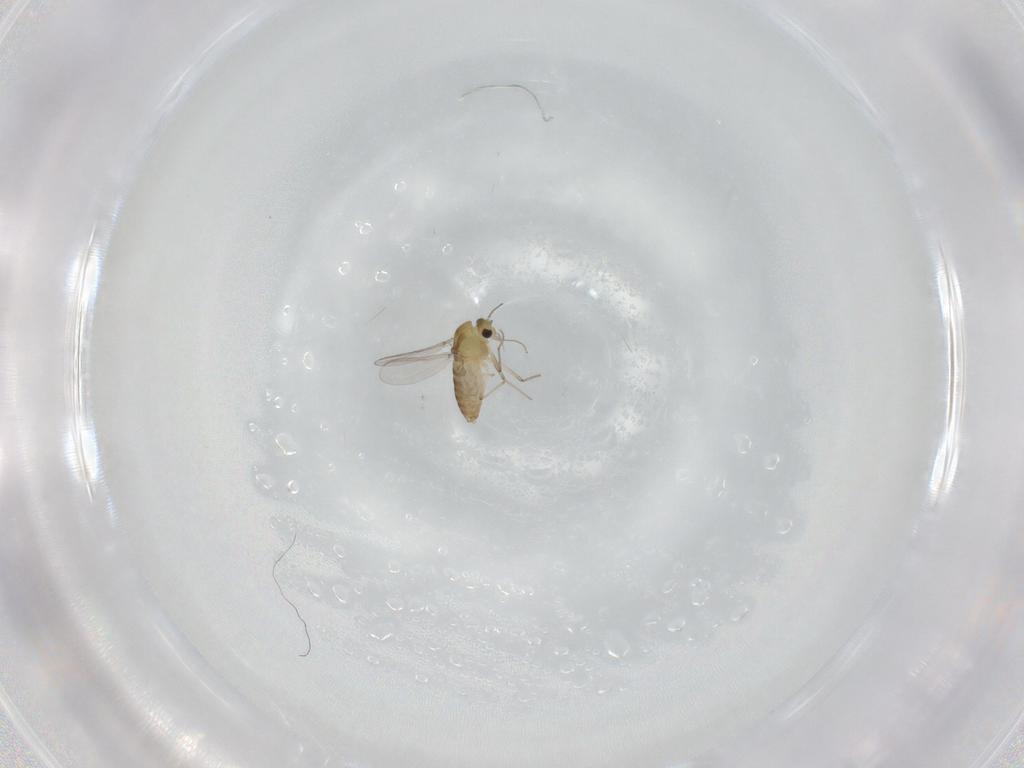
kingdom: Animalia
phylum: Arthropoda
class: Insecta
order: Diptera
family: Chironomidae
